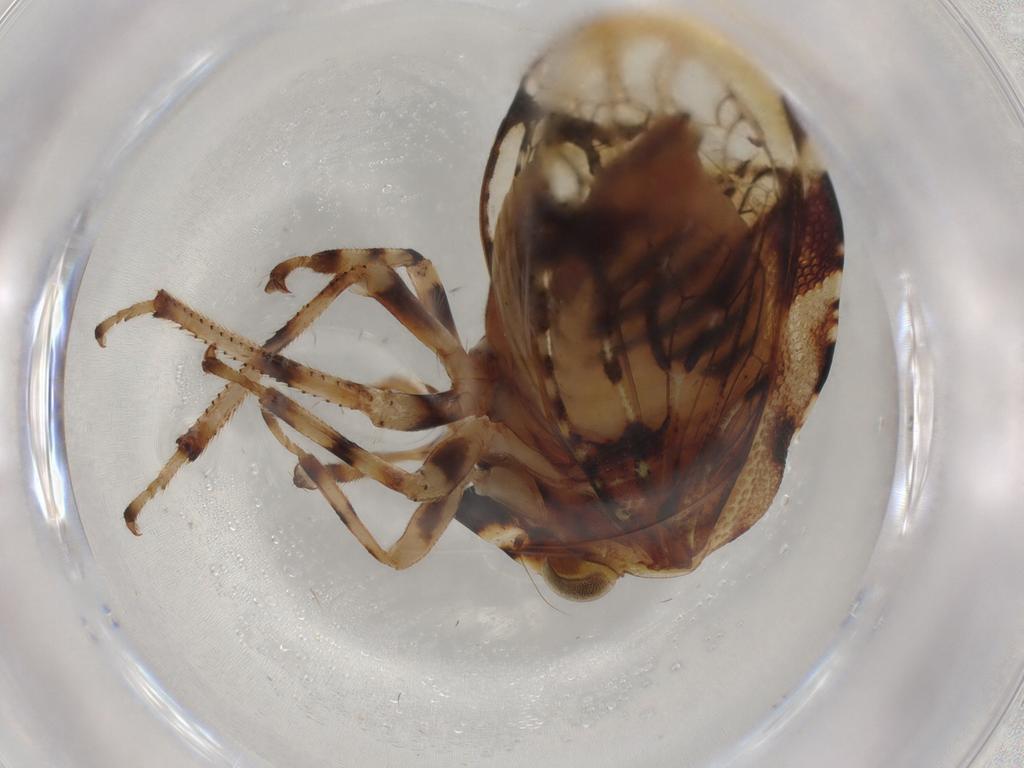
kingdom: Animalia
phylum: Arthropoda
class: Insecta
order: Hemiptera
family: Membracidae
